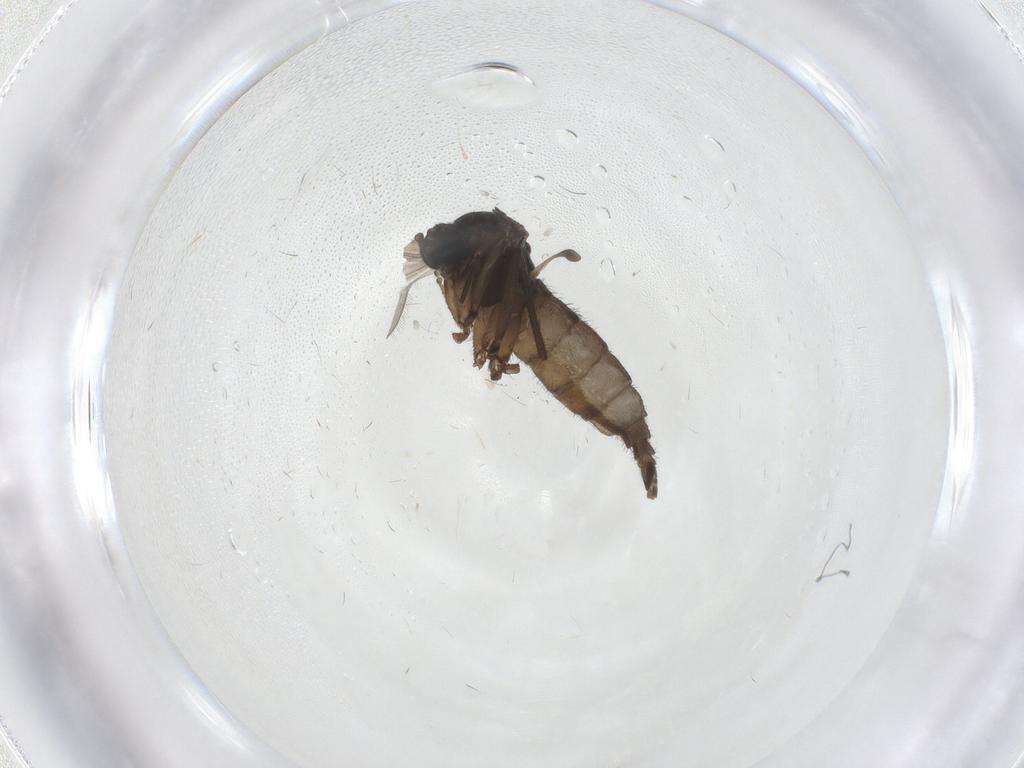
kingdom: Animalia
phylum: Arthropoda
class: Insecta
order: Diptera
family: Sciaridae
